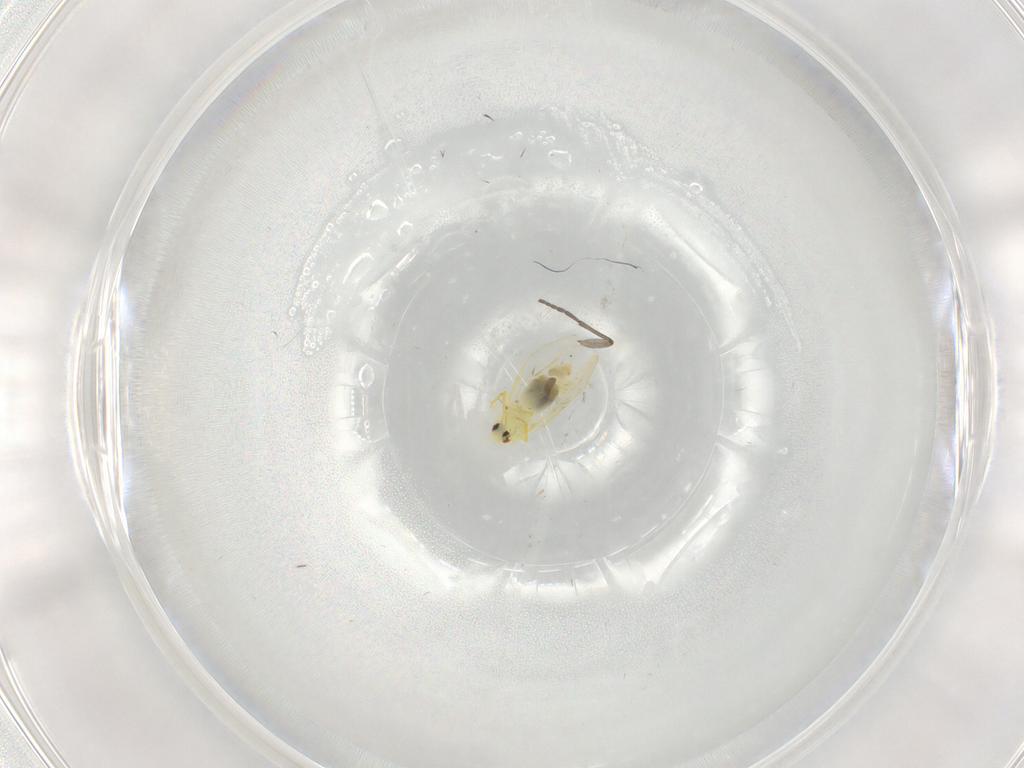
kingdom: Animalia
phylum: Arthropoda
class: Insecta
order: Hemiptera
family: Aleyrodidae
